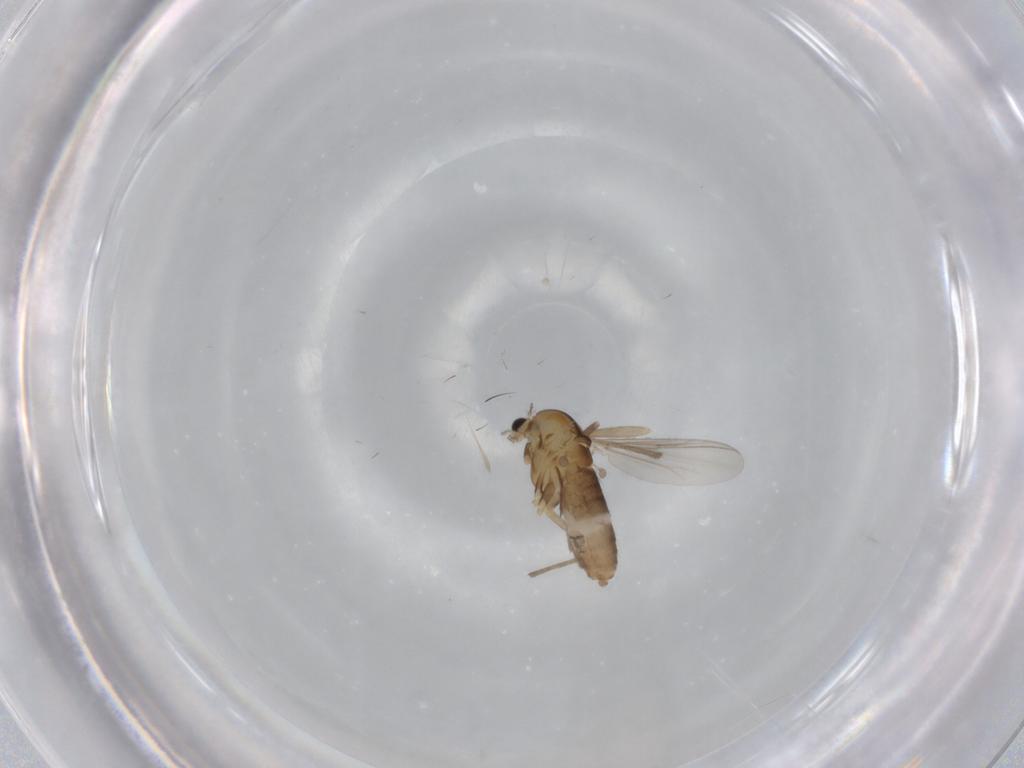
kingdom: Animalia
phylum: Arthropoda
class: Insecta
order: Diptera
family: Chironomidae
